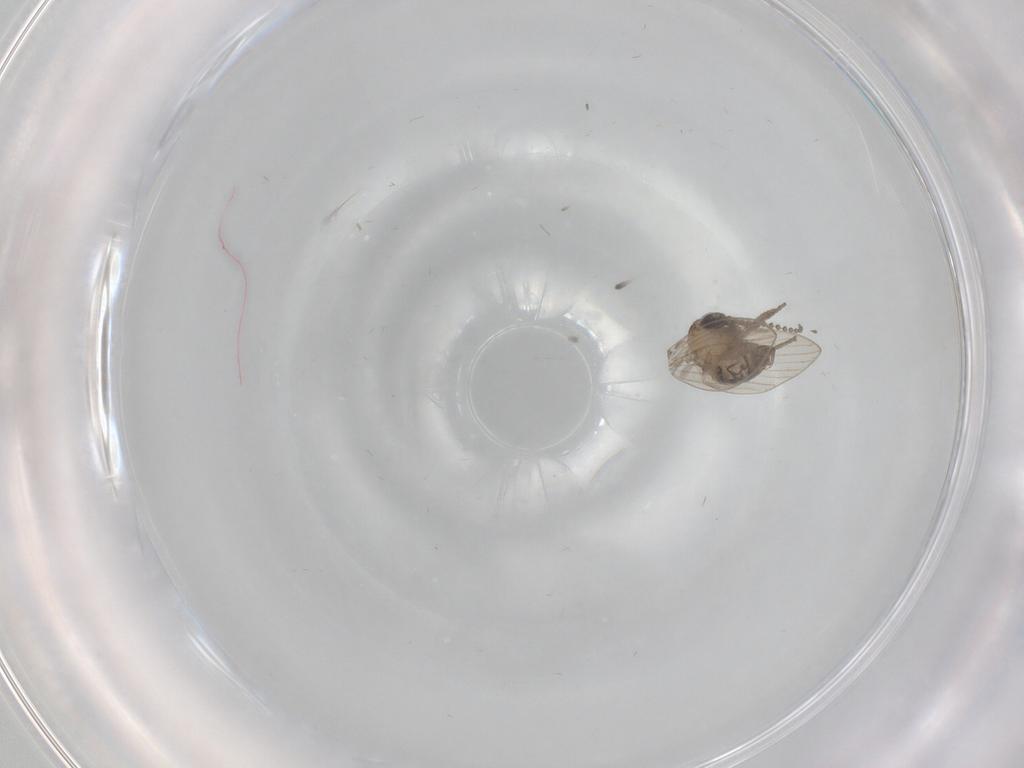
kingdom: Animalia
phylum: Arthropoda
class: Insecta
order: Diptera
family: Psychodidae
